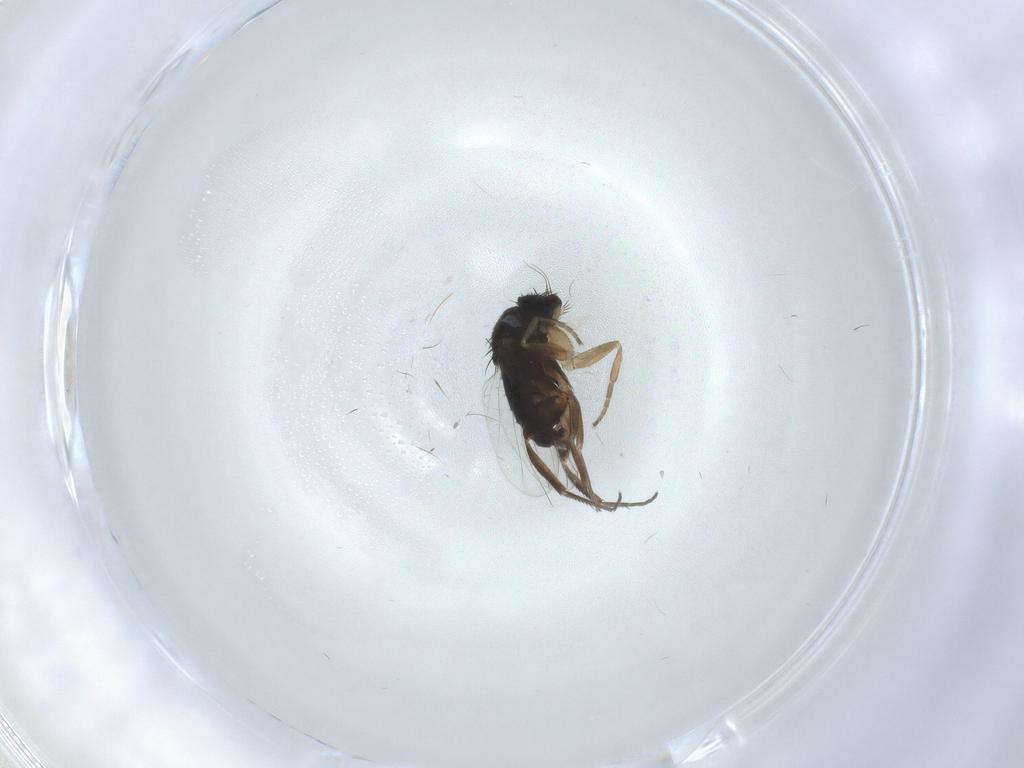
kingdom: Animalia
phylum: Arthropoda
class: Insecta
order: Diptera
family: Phoridae
